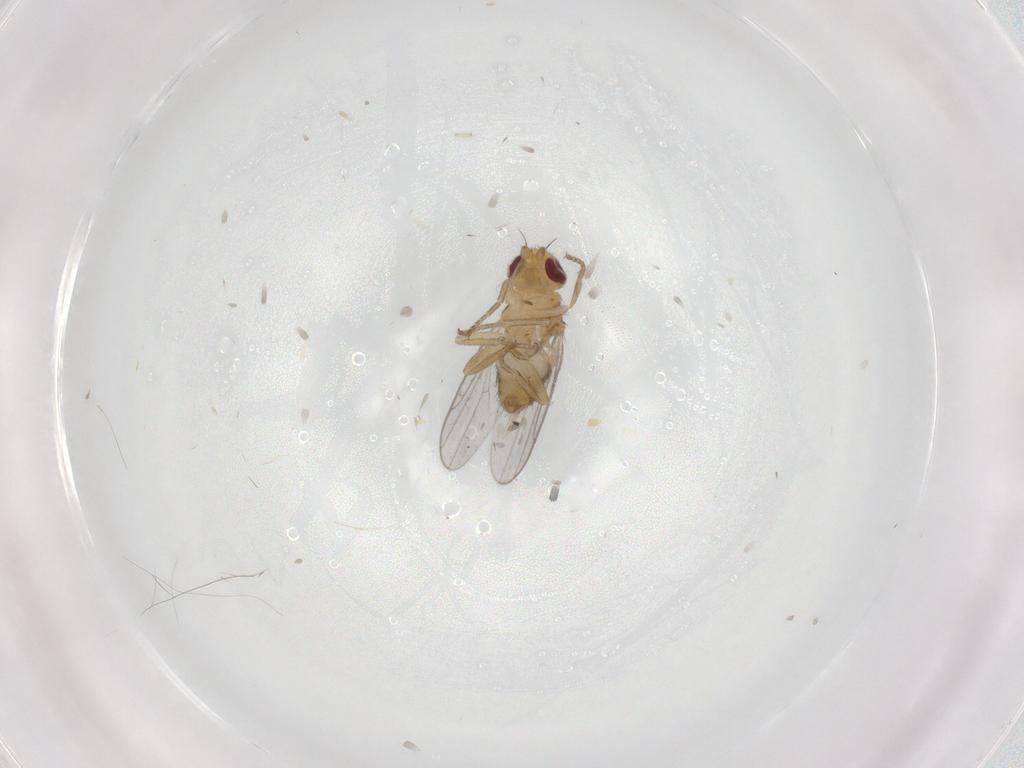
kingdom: Animalia
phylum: Arthropoda
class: Insecta
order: Diptera
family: Chloropidae
